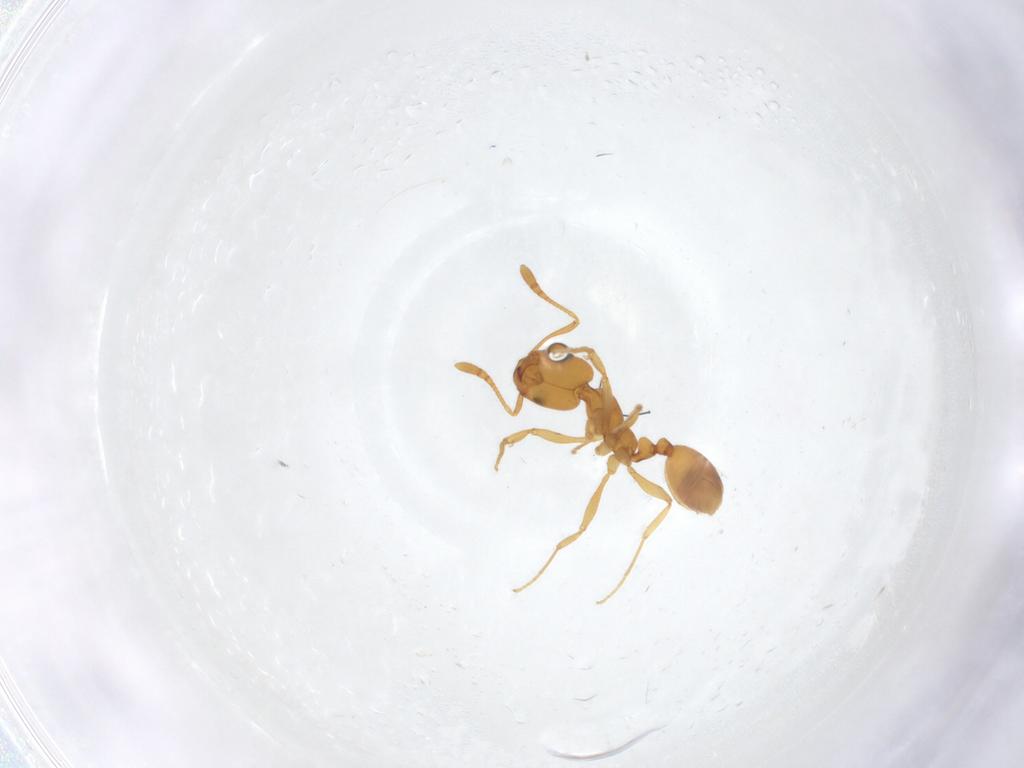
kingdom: Animalia
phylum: Arthropoda
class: Insecta
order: Hymenoptera
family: Formicidae
